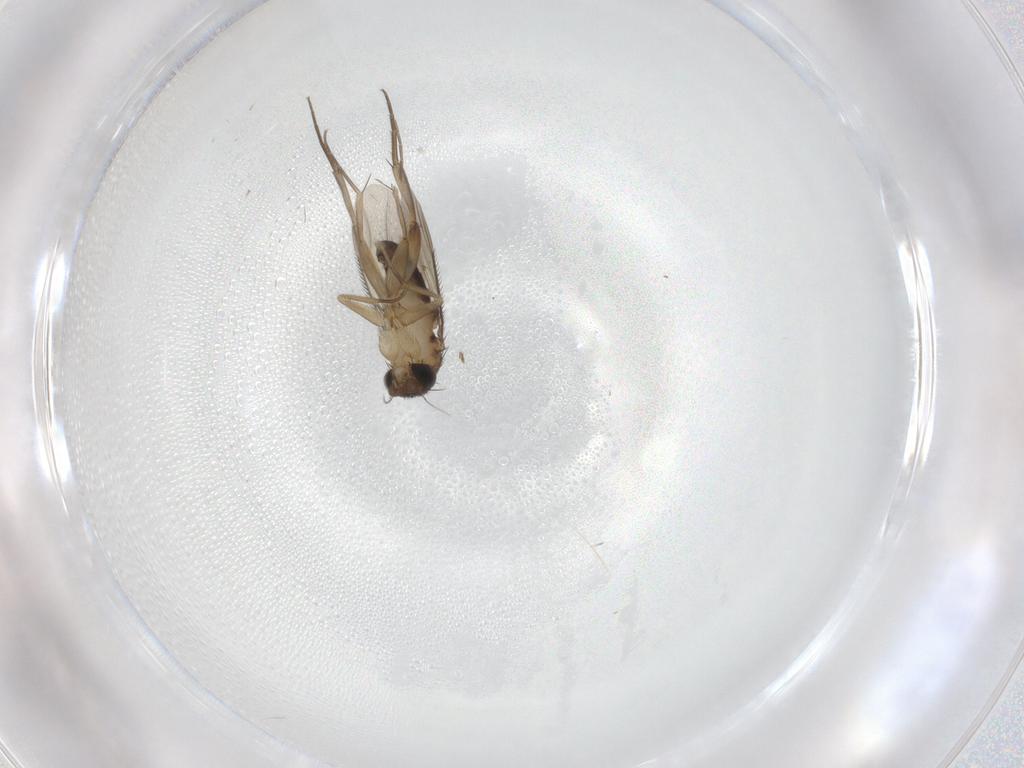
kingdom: Animalia
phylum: Arthropoda
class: Insecta
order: Diptera
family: Phoridae
